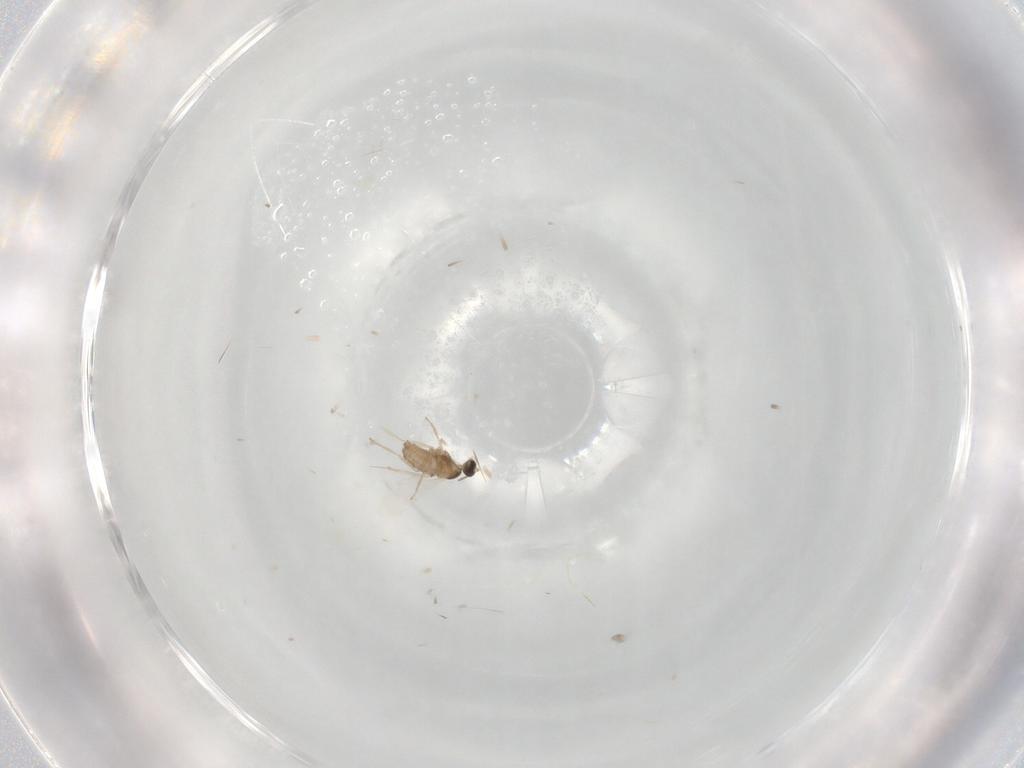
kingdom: Animalia
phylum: Arthropoda
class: Insecta
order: Diptera
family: Cecidomyiidae
